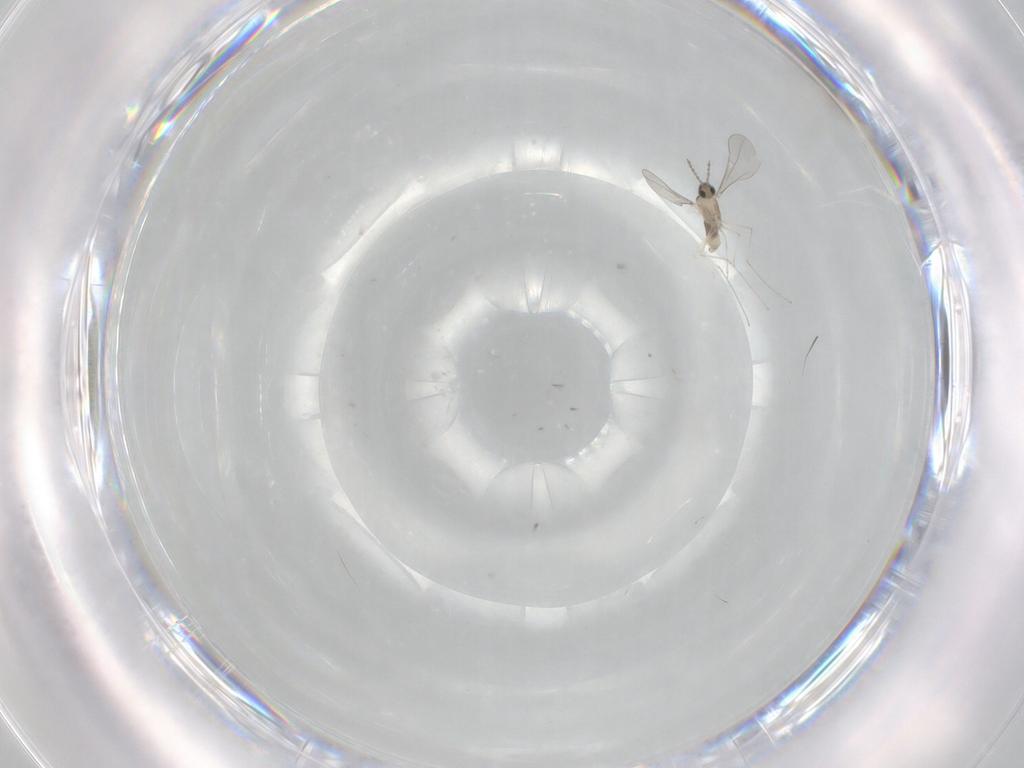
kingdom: Animalia
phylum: Arthropoda
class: Insecta
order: Diptera
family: Cecidomyiidae
